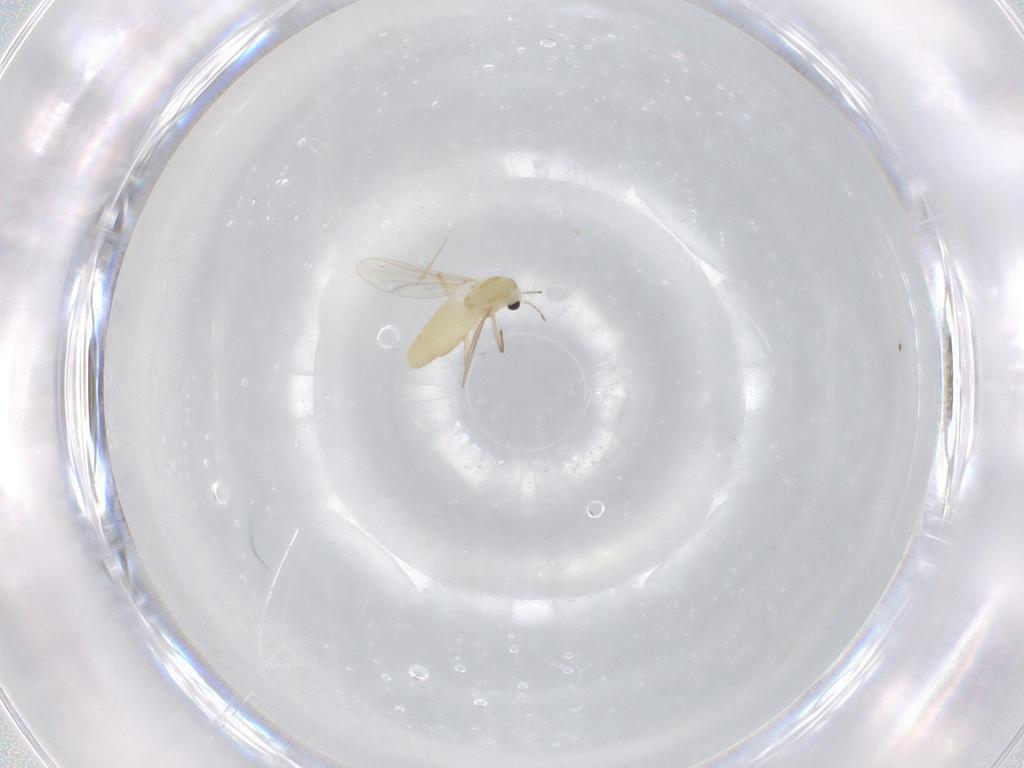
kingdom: Animalia
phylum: Arthropoda
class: Insecta
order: Diptera
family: Chironomidae
